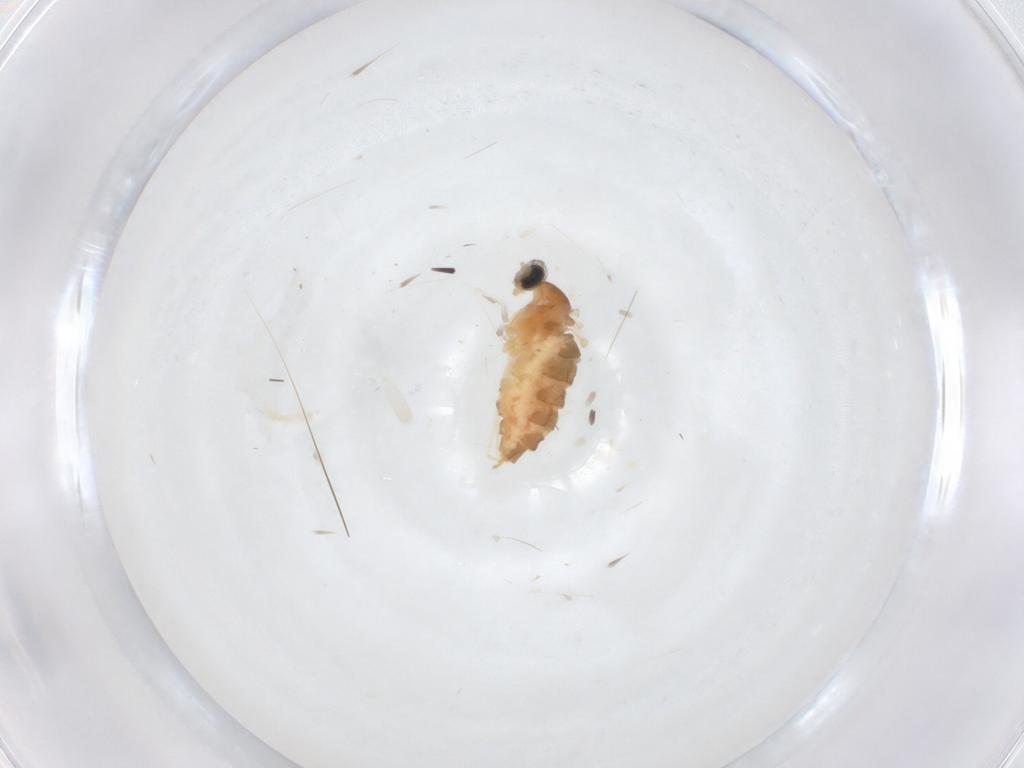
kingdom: Animalia
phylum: Arthropoda
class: Insecta
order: Diptera
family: Cecidomyiidae
